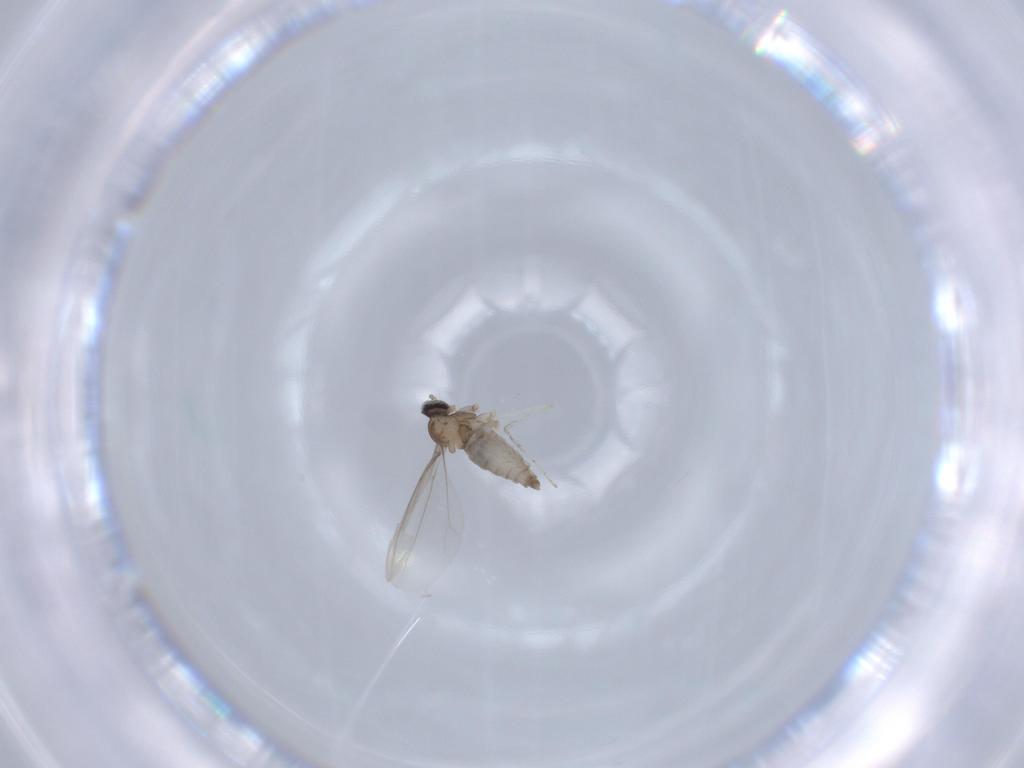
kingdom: Animalia
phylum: Arthropoda
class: Insecta
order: Diptera
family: Cecidomyiidae
